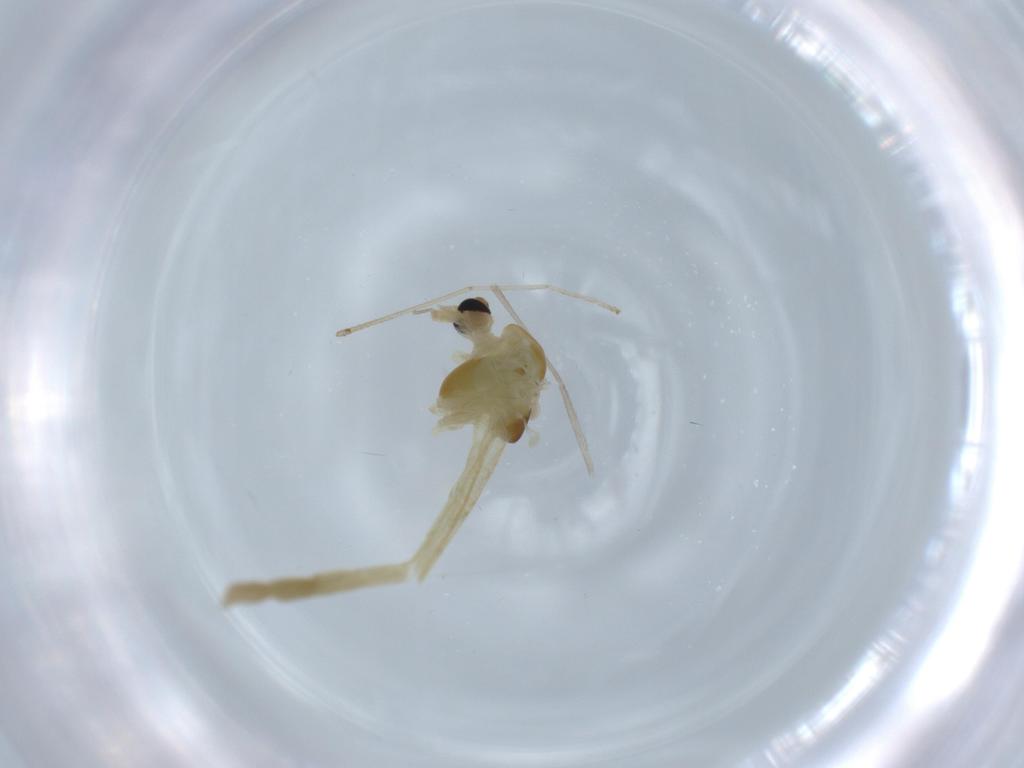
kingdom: Animalia
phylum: Arthropoda
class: Insecta
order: Diptera
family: Chironomidae
